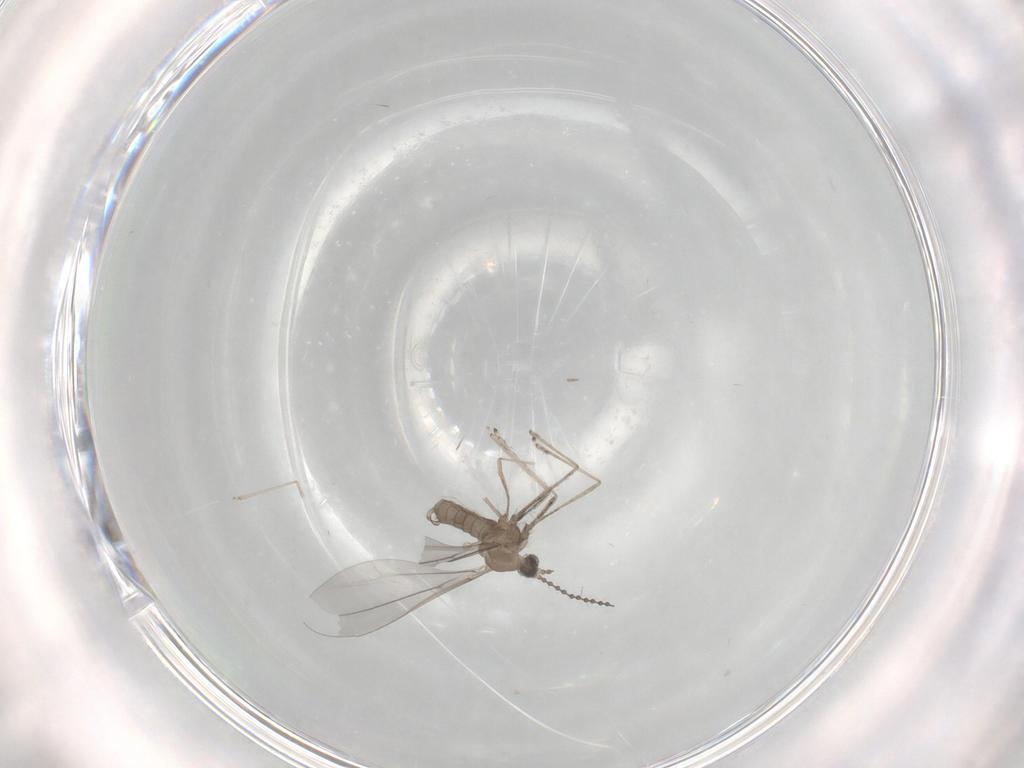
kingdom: Animalia
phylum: Arthropoda
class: Insecta
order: Diptera
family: Cecidomyiidae
